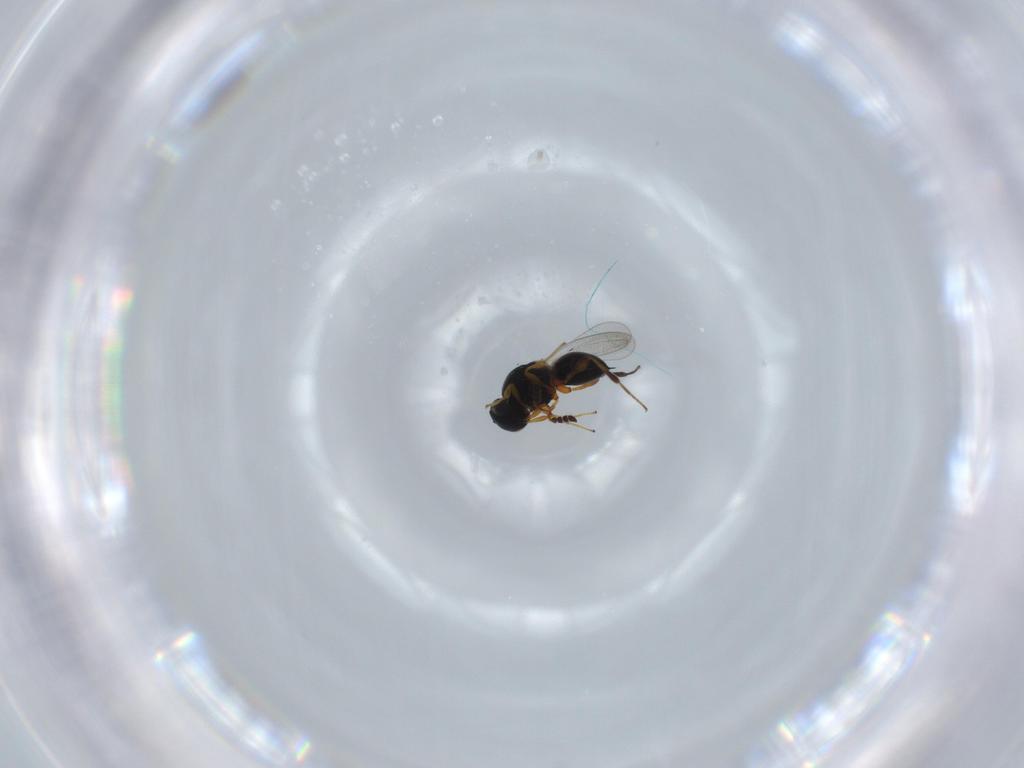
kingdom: Animalia
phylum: Arthropoda
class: Insecta
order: Hymenoptera
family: Platygastridae
